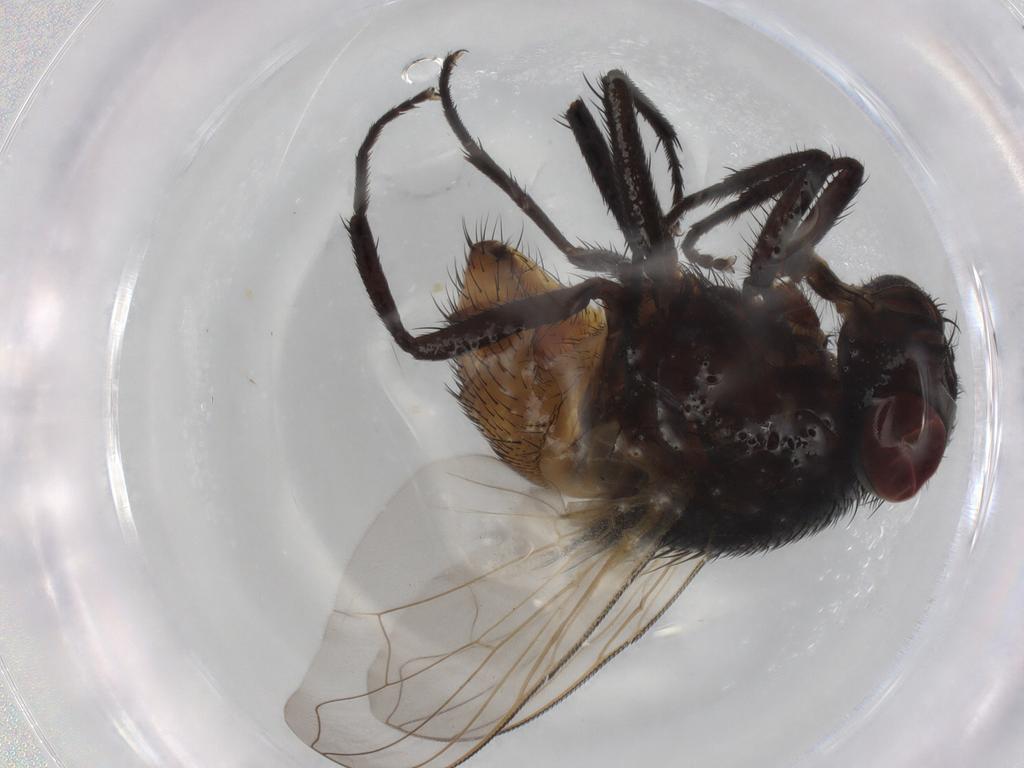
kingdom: Animalia
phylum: Arthropoda
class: Insecta
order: Diptera
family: Muscidae
